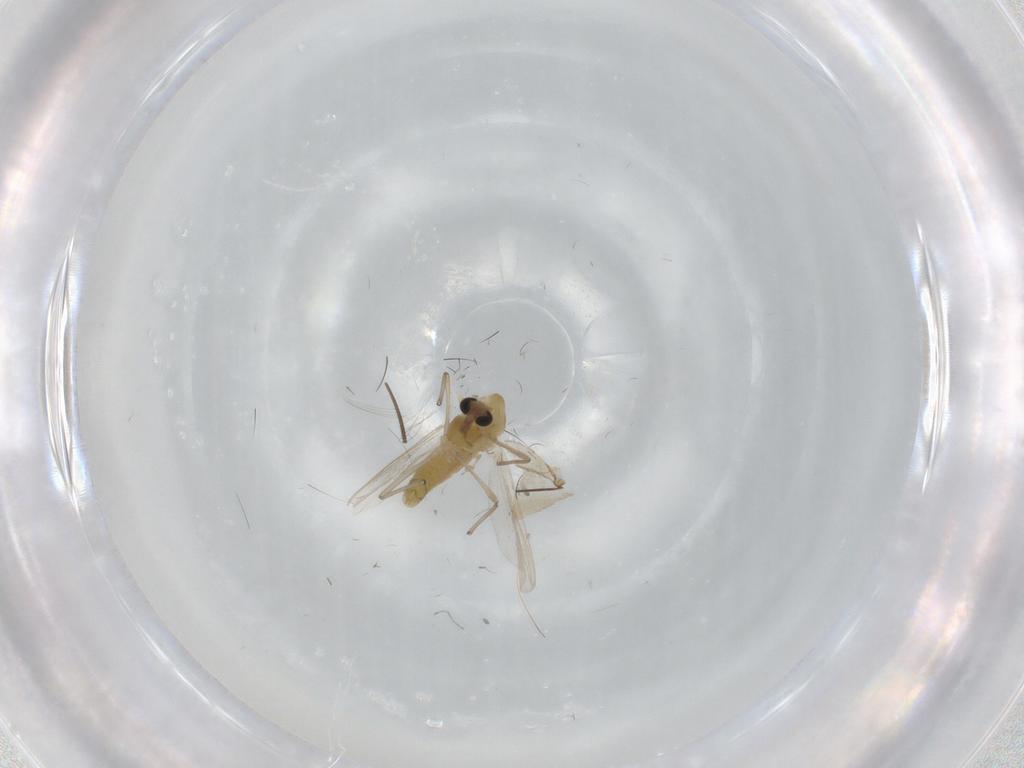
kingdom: Animalia
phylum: Arthropoda
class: Insecta
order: Diptera
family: Chironomidae
